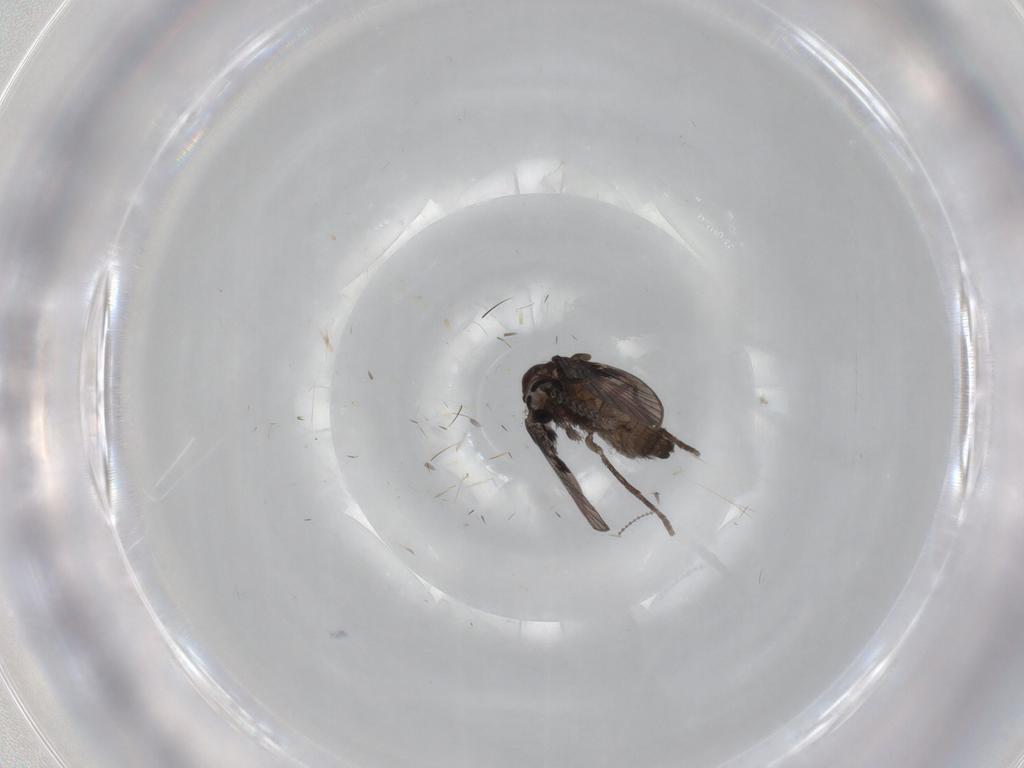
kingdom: Animalia
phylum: Arthropoda
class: Insecta
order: Diptera
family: Psychodidae
